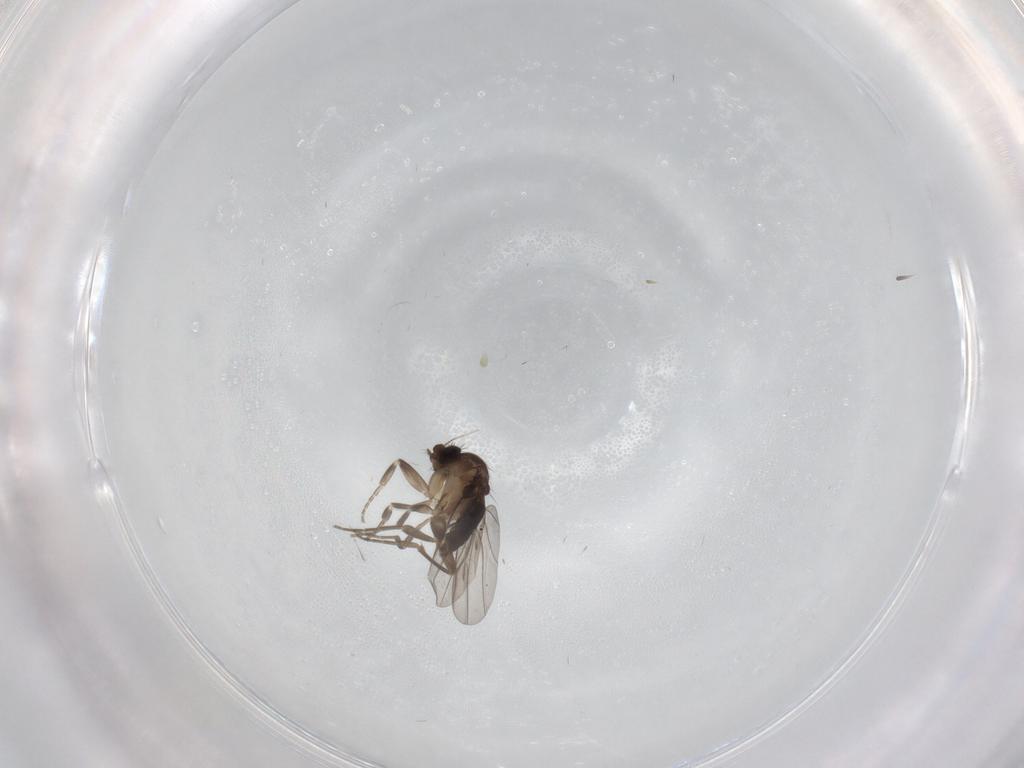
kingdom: Animalia
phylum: Arthropoda
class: Insecta
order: Diptera
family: Phoridae
